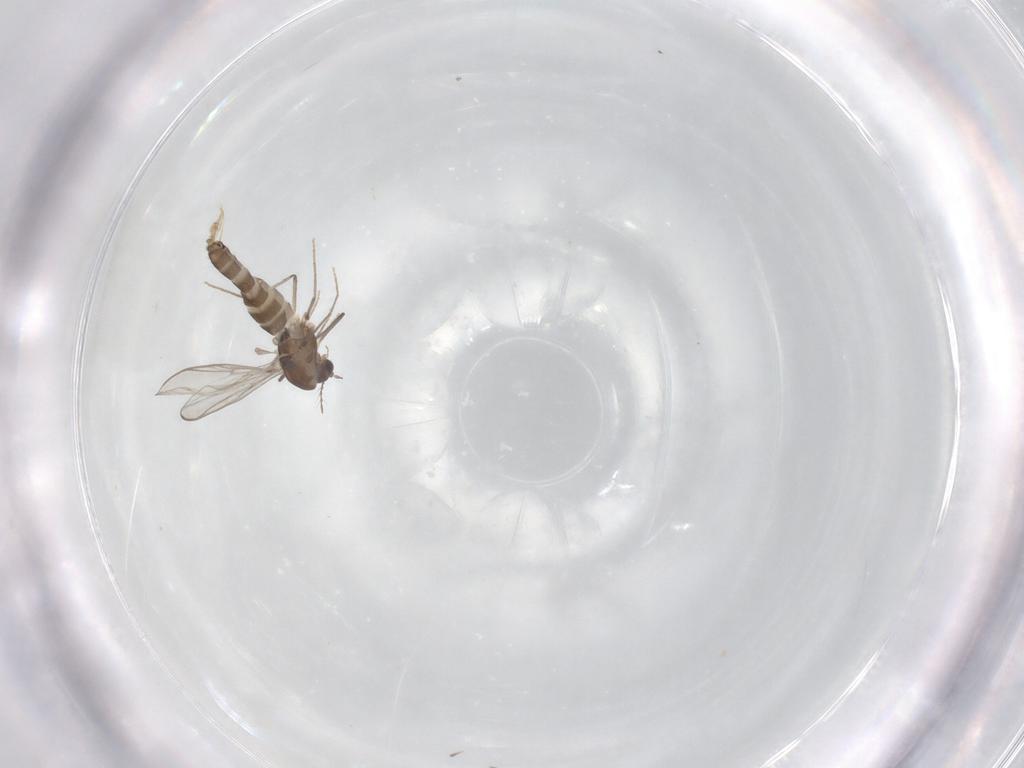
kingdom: Animalia
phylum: Arthropoda
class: Insecta
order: Diptera
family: Chironomidae
